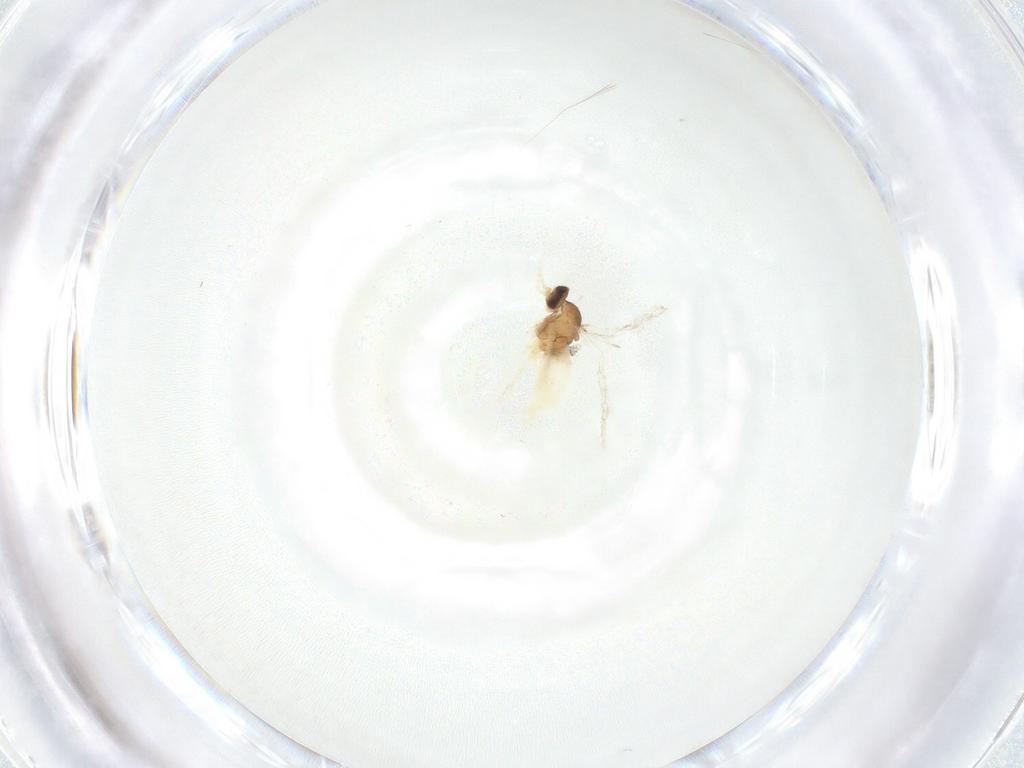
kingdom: Animalia
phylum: Arthropoda
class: Insecta
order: Diptera
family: Cecidomyiidae
